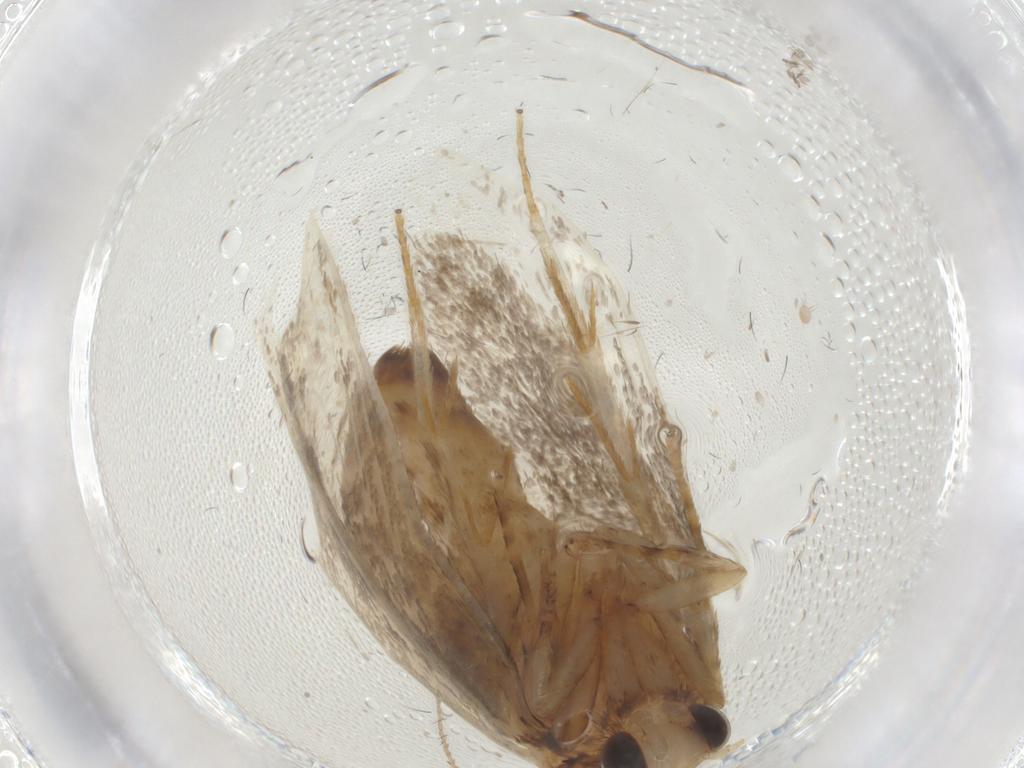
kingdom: Animalia
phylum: Arthropoda
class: Insecta
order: Lepidoptera
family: Tineidae
